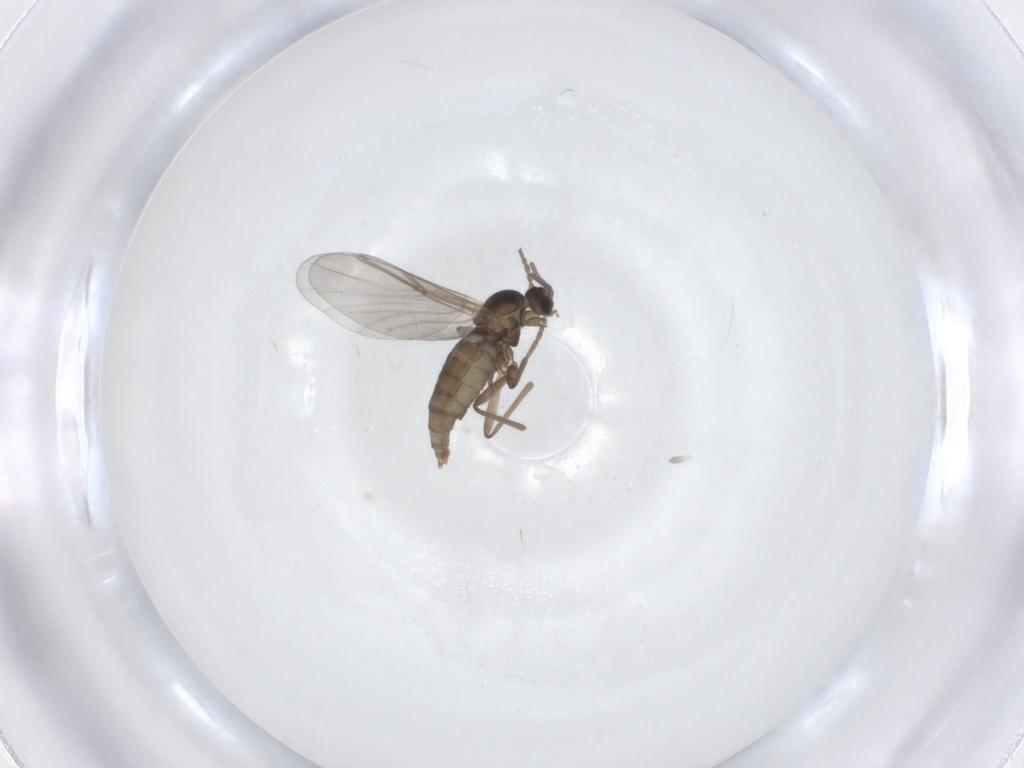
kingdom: Animalia
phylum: Arthropoda
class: Insecta
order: Diptera
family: Cecidomyiidae
